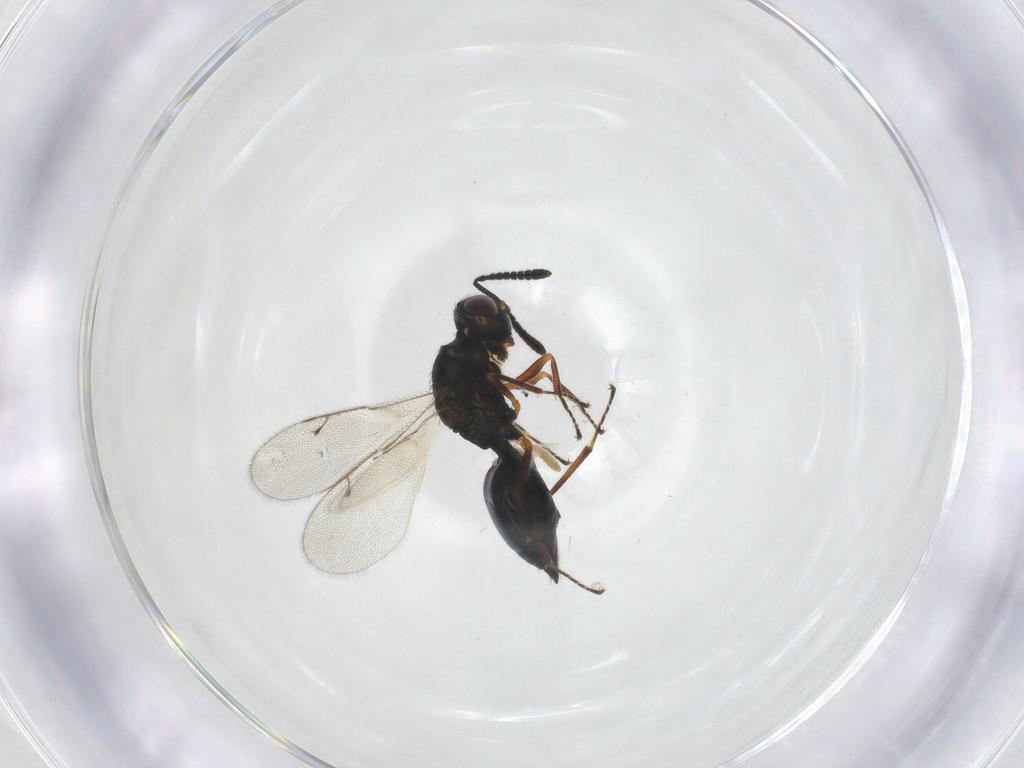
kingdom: Animalia
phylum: Arthropoda
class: Insecta
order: Hymenoptera
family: Pteromalidae
